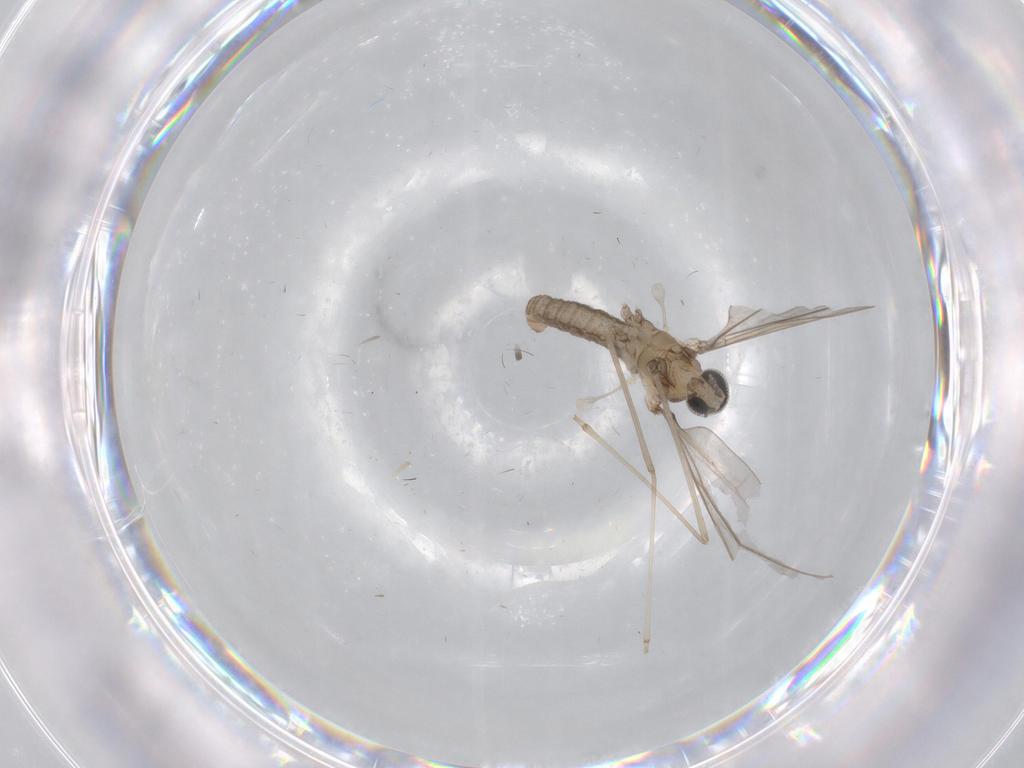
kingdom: Animalia
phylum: Arthropoda
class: Insecta
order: Diptera
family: Cecidomyiidae
